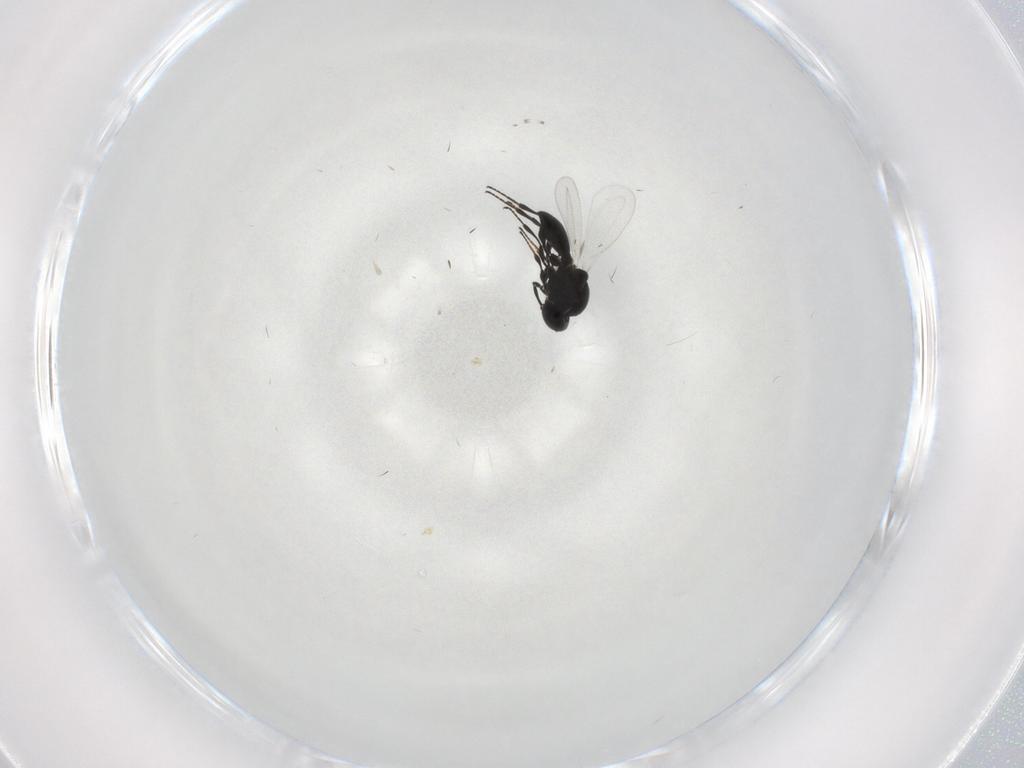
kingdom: Animalia
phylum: Arthropoda
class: Insecta
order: Diptera
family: Mythicomyiidae
